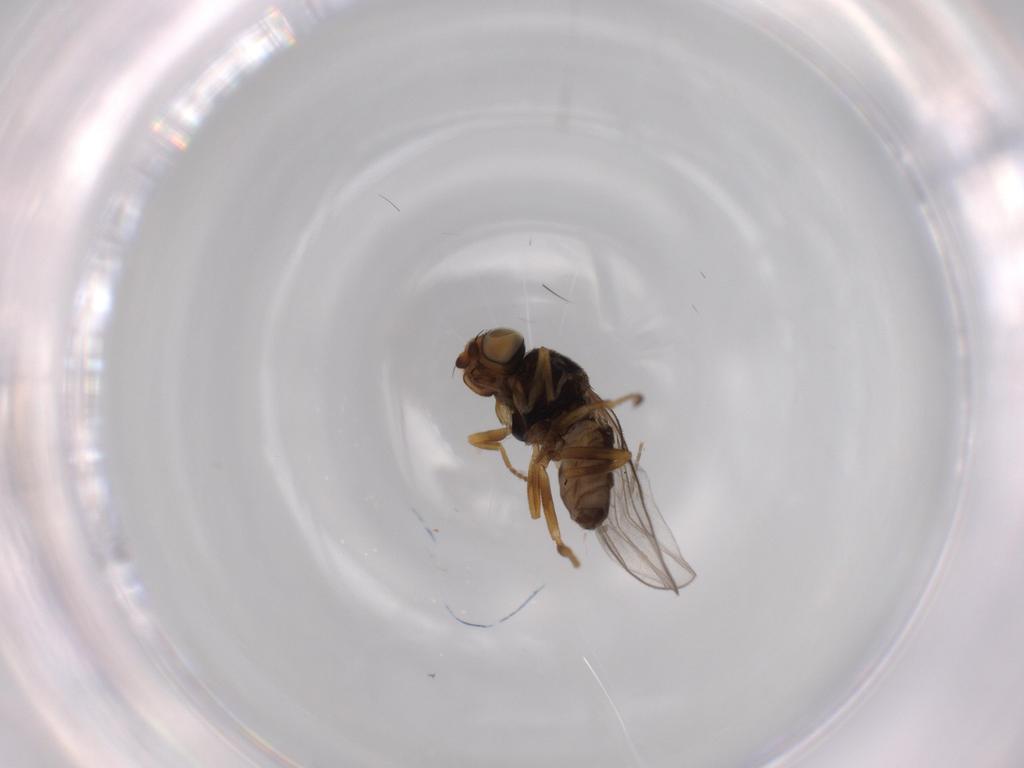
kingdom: Animalia
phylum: Arthropoda
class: Insecta
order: Diptera
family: Chloropidae
